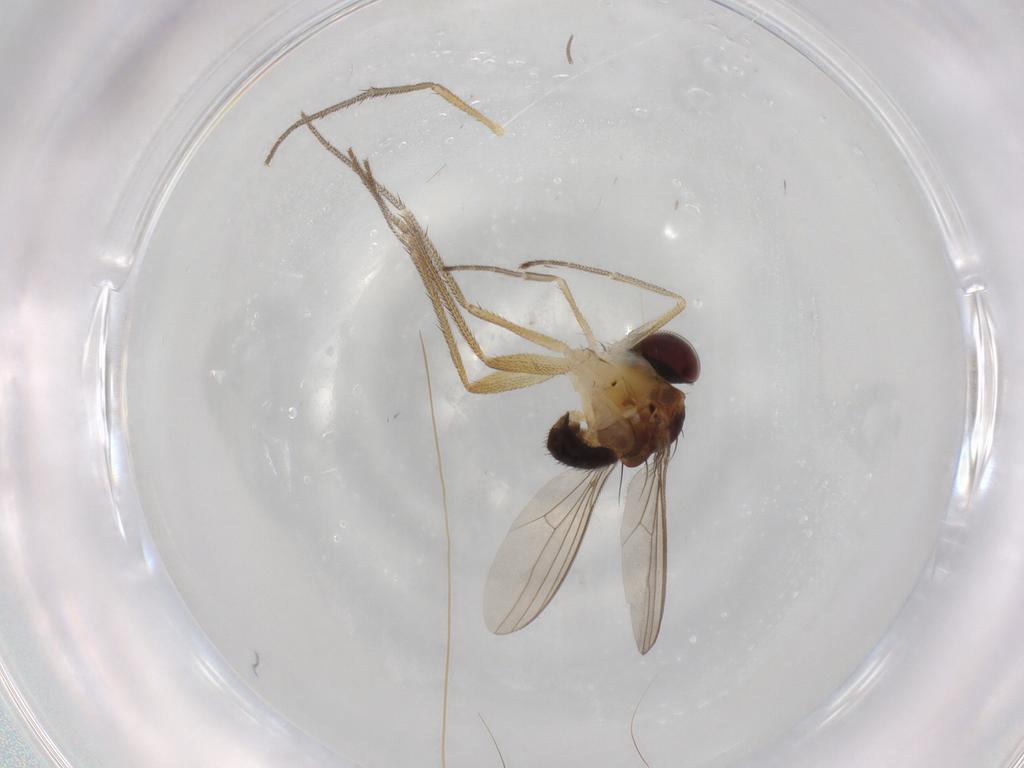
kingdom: Animalia
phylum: Arthropoda
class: Insecta
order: Diptera
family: Dolichopodidae
